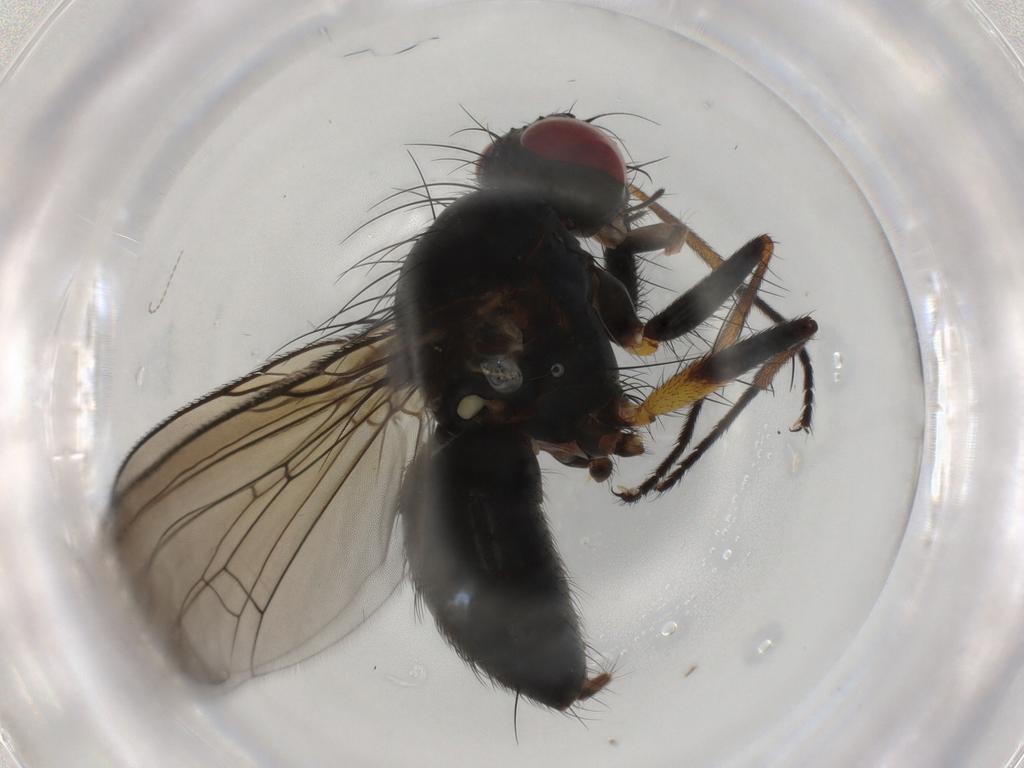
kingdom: Animalia
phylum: Arthropoda
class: Insecta
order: Diptera
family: Muscidae
